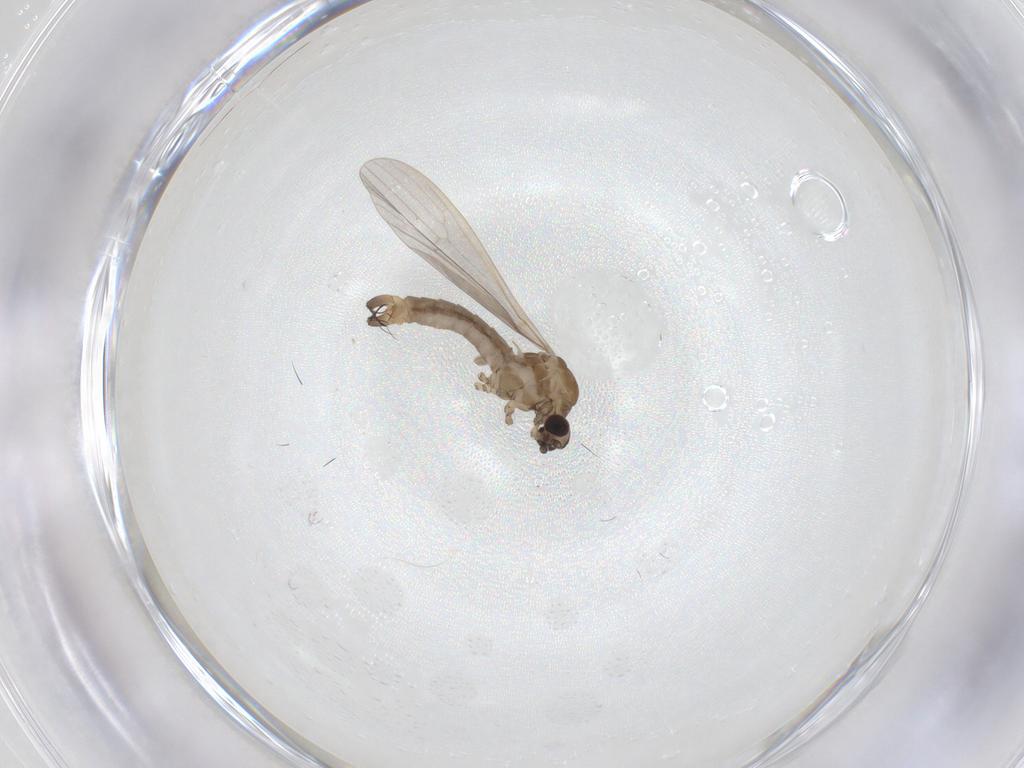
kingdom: Animalia
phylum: Arthropoda
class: Insecta
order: Diptera
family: Limoniidae
